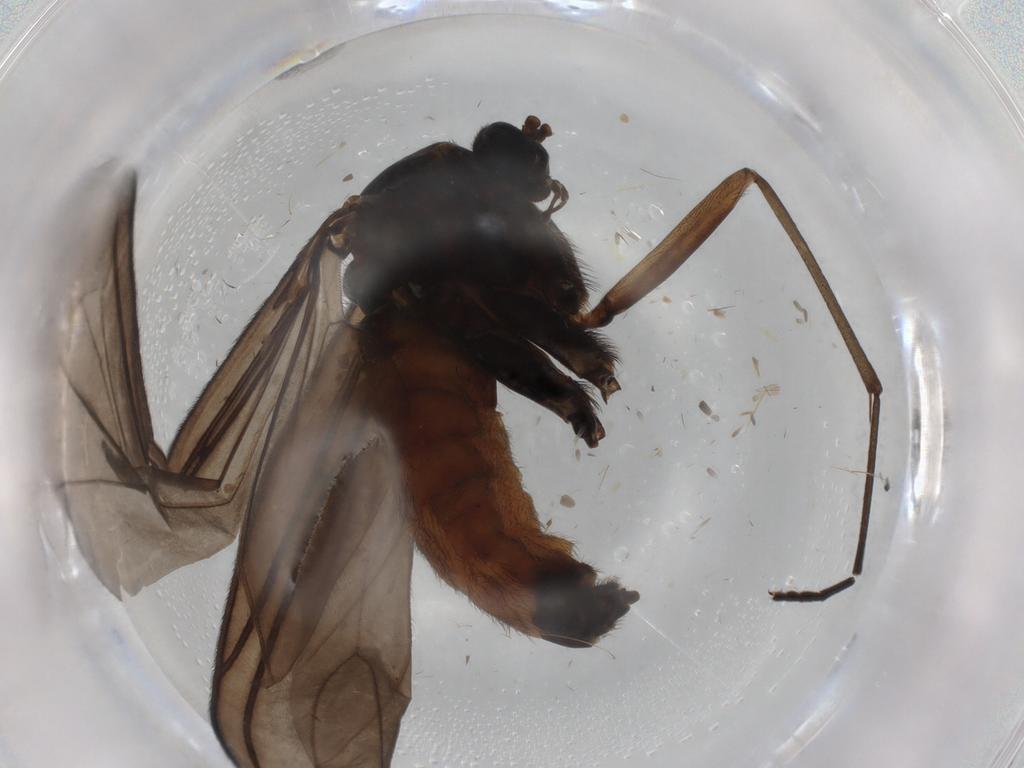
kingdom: Animalia
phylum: Arthropoda
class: Insecta
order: Diptera
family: Sciaridae
